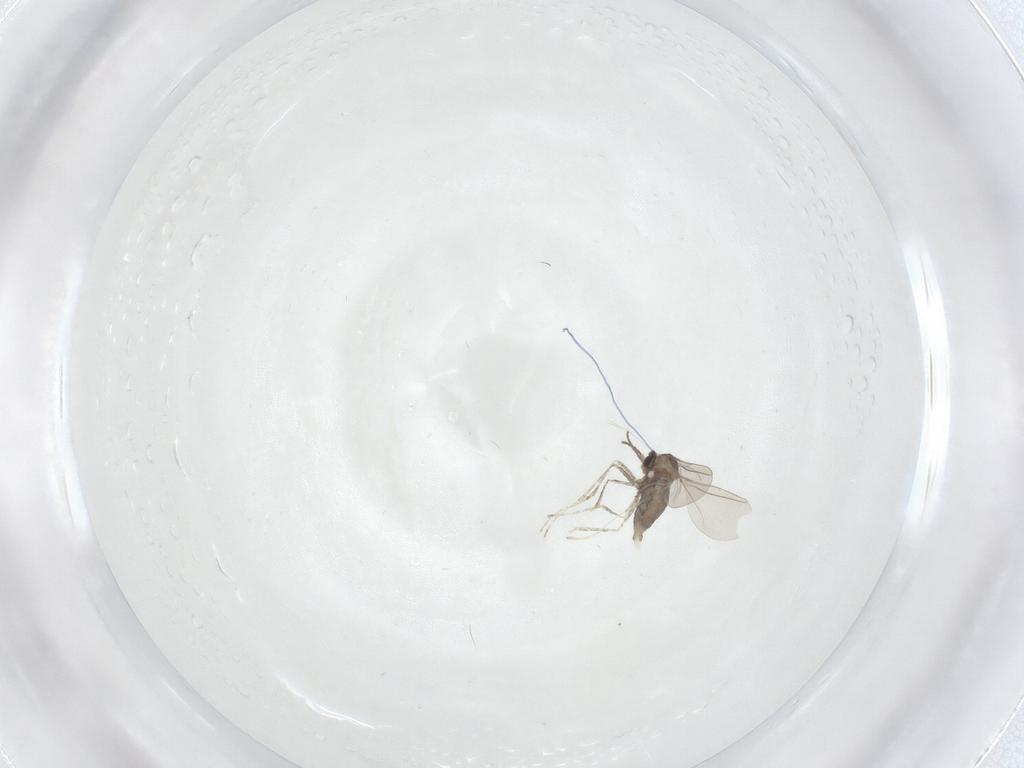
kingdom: Animalia
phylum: Arthropoda
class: Insecta
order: Diptera
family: Cecidomyiidae
